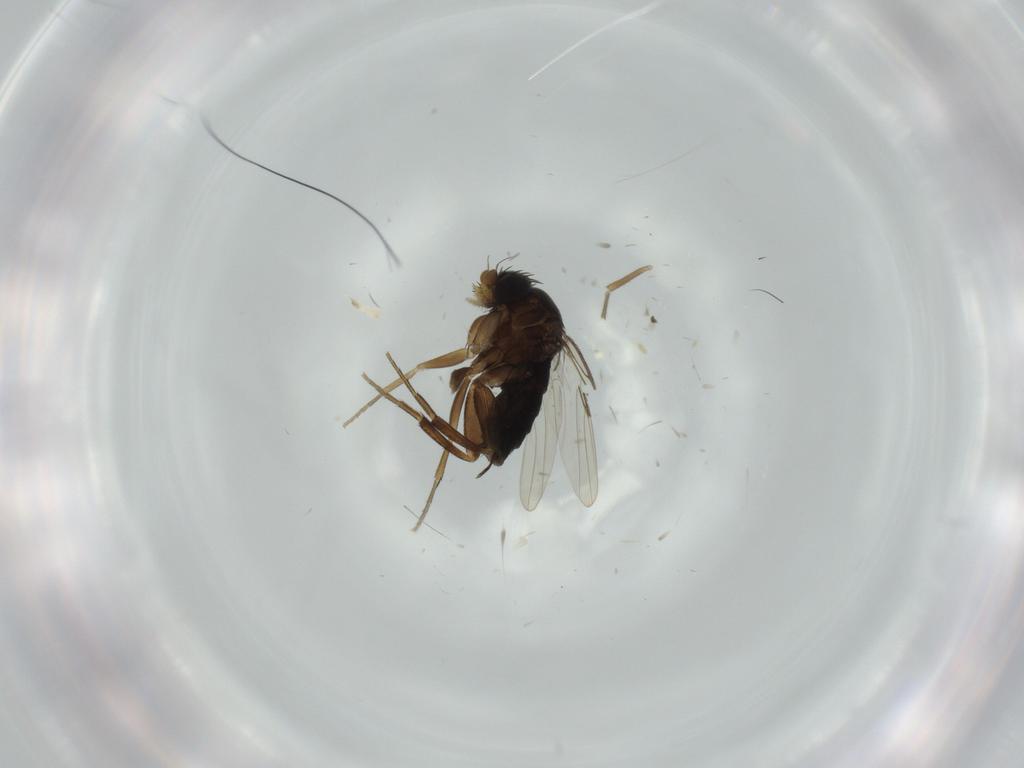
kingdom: Animalia
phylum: Arthropoda
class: Insecta
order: Diptera
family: Phoridae
